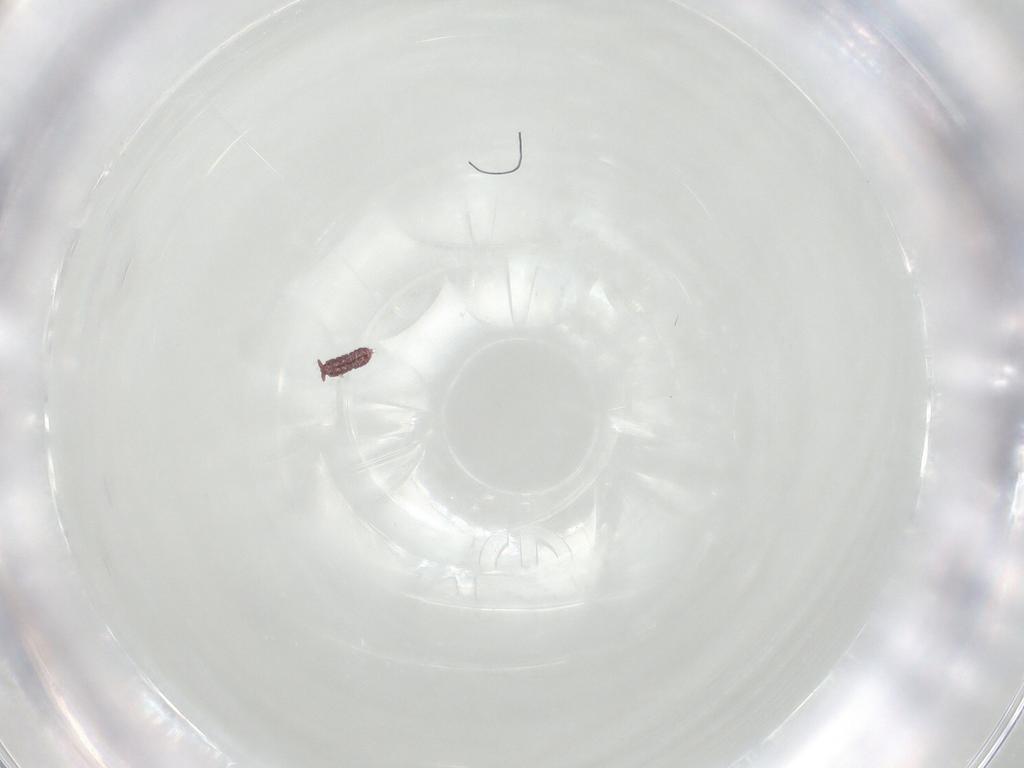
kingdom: Animalia
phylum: Arthropoda
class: Collembola
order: Poduromorpha
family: Hypogastruridae
